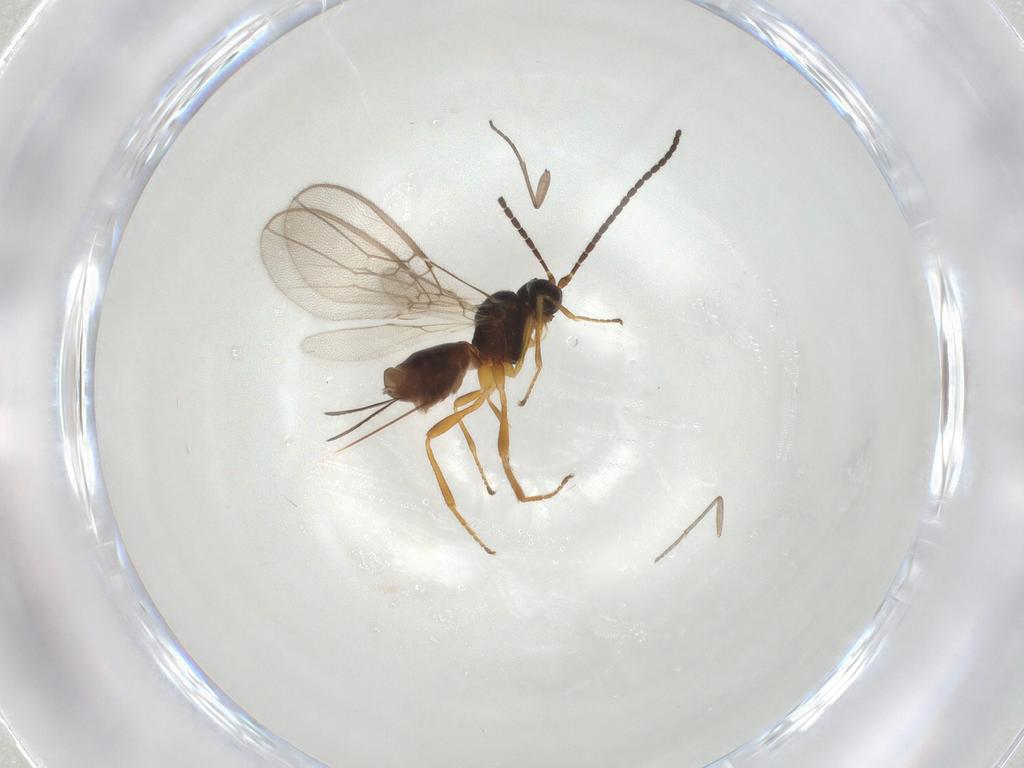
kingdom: Animalia
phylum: Arthropoda
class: Insecta
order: Hymenoptera
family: Braconidae
